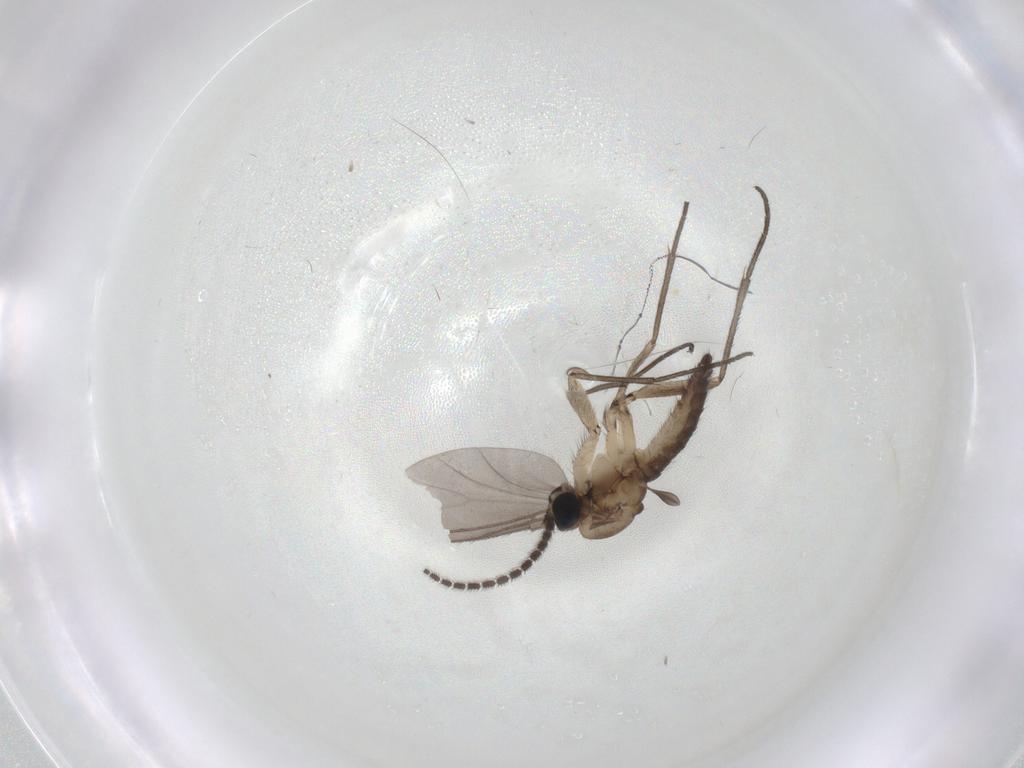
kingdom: Animalia
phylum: Arthropoda
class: Insecta
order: Diptera
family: Sciaridae
